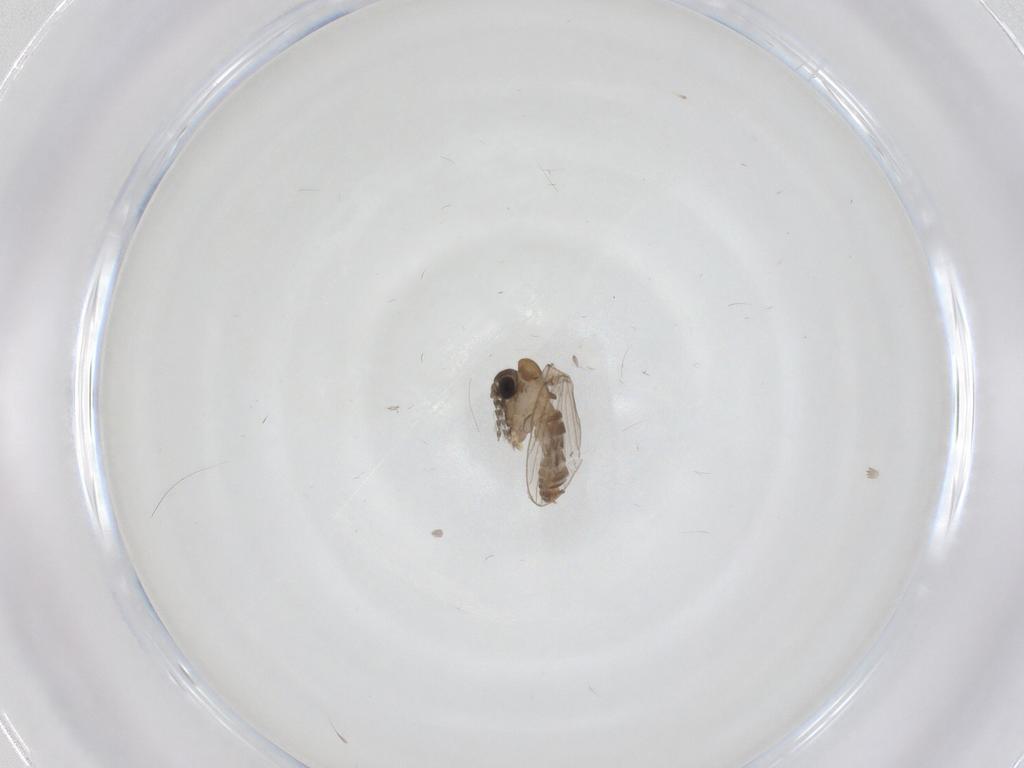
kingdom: Animalia
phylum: Arthropoda
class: Insecta
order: Diptera
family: Psychodidae
